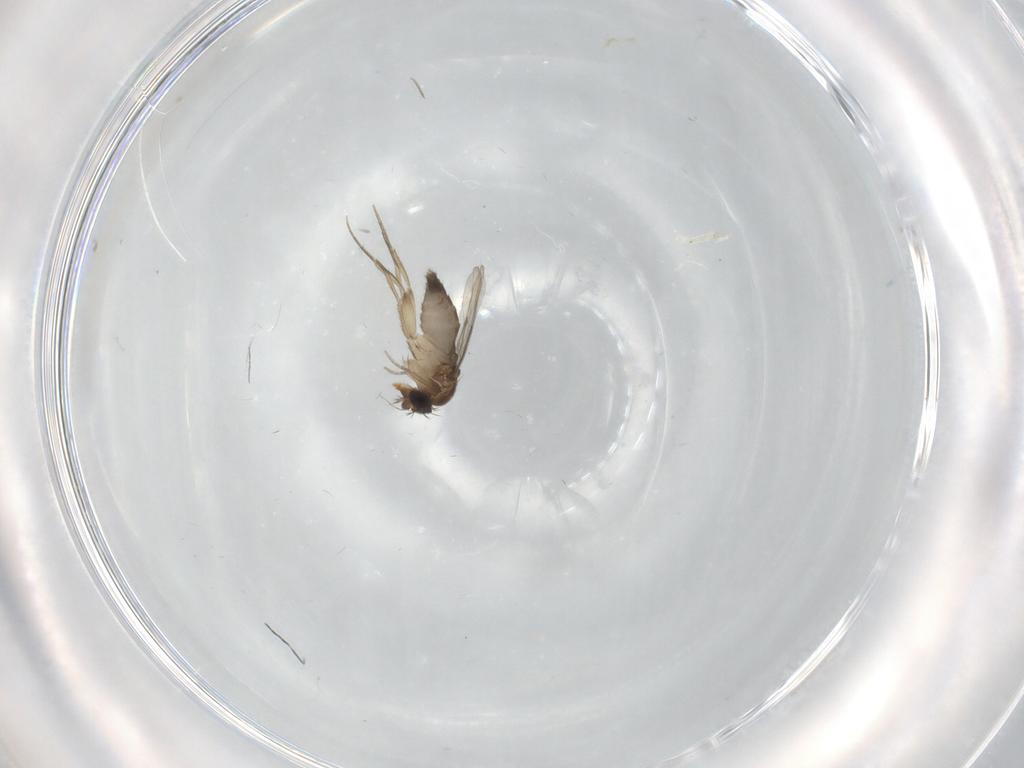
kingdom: Animalia
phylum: Arthropoda
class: Insecta
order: Diptera
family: Phoridae
